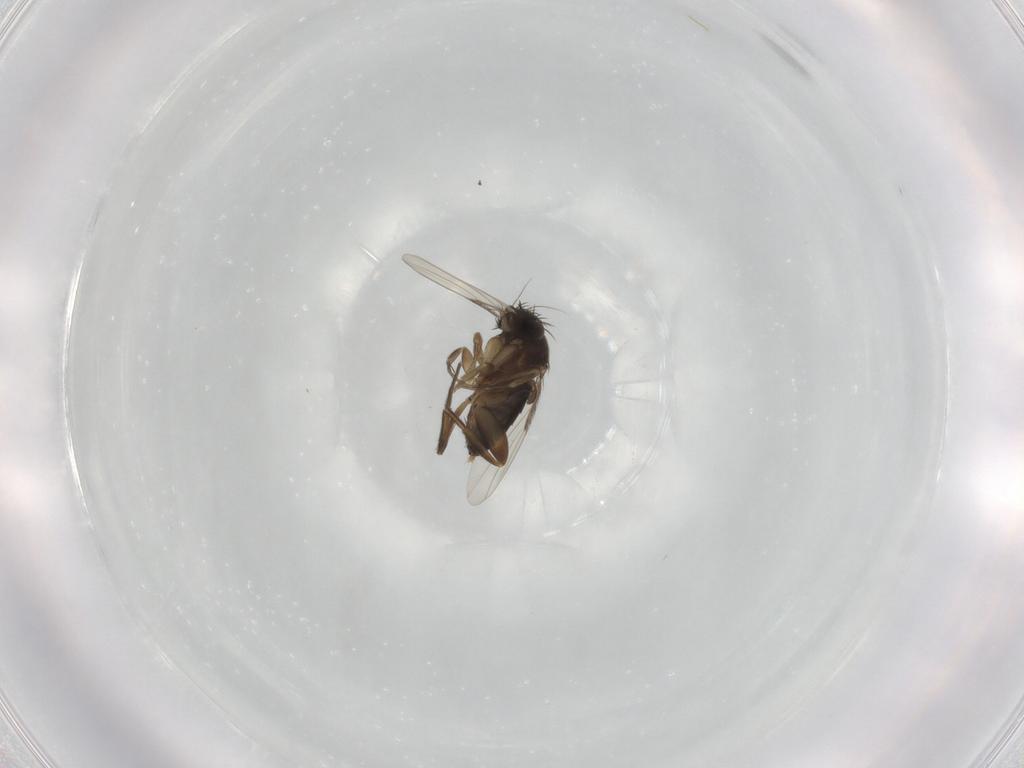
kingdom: Animalia
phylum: Arthropoda
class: Insecta
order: Diptera
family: Phoridae
